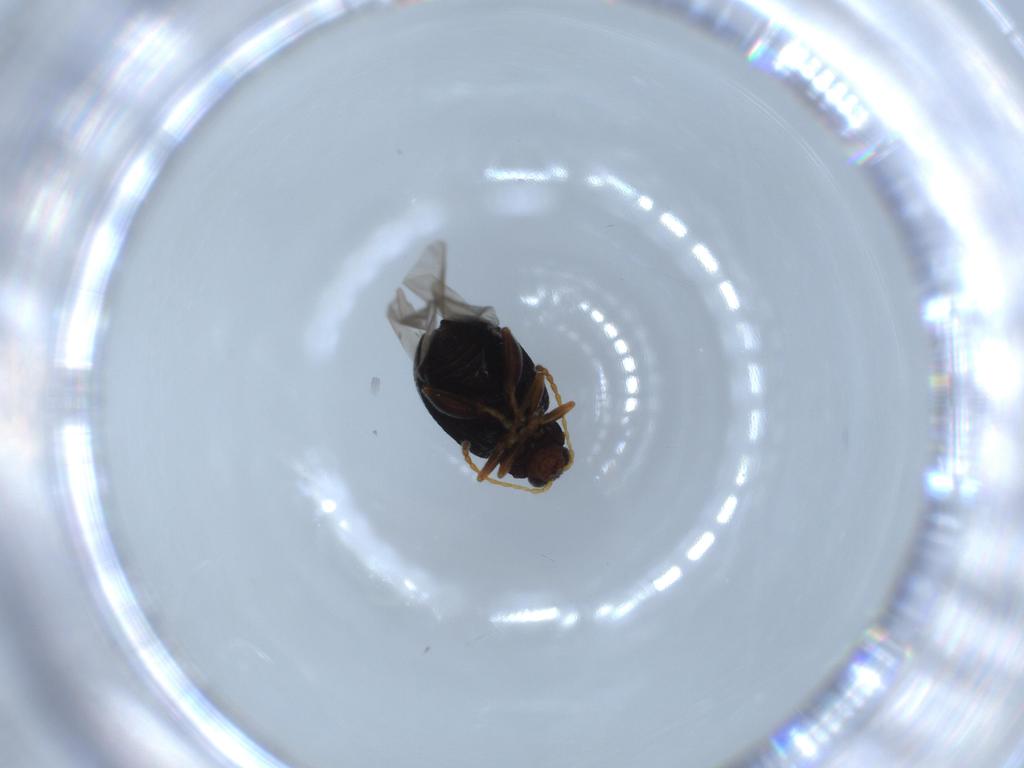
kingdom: Animalia
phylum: Arthropoda
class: Insecta
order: Coleoptera
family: Chrysomelidae
